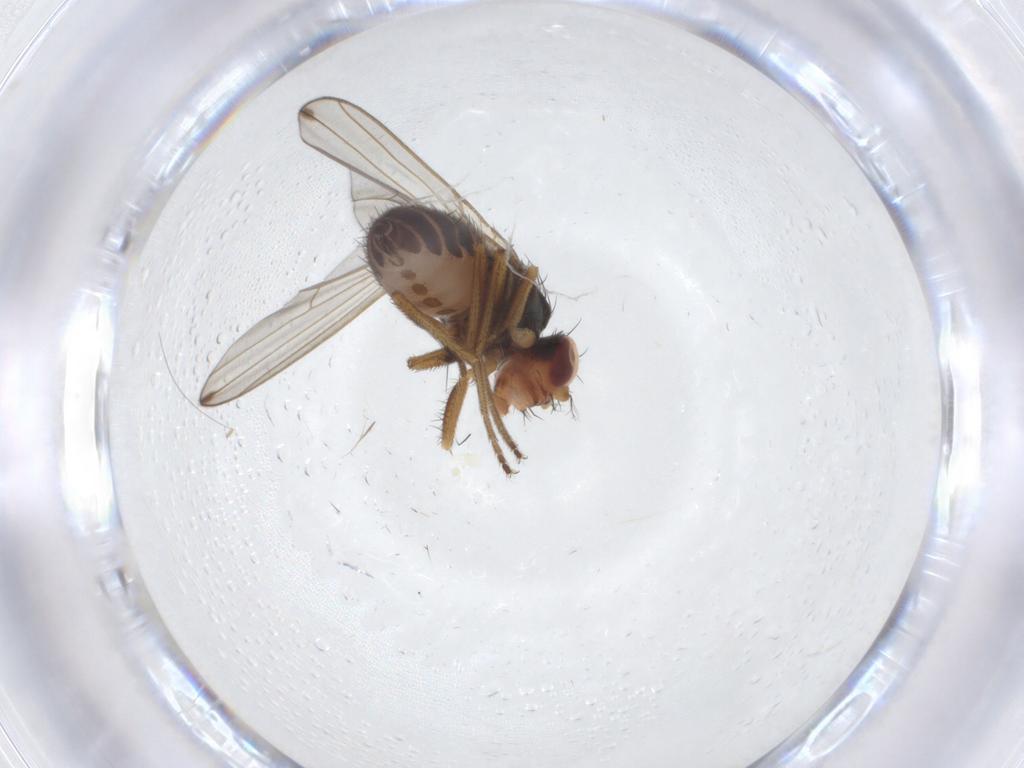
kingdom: Animalia
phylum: Arthropoda
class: Insecta
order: Diptera
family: Drosophilidae
